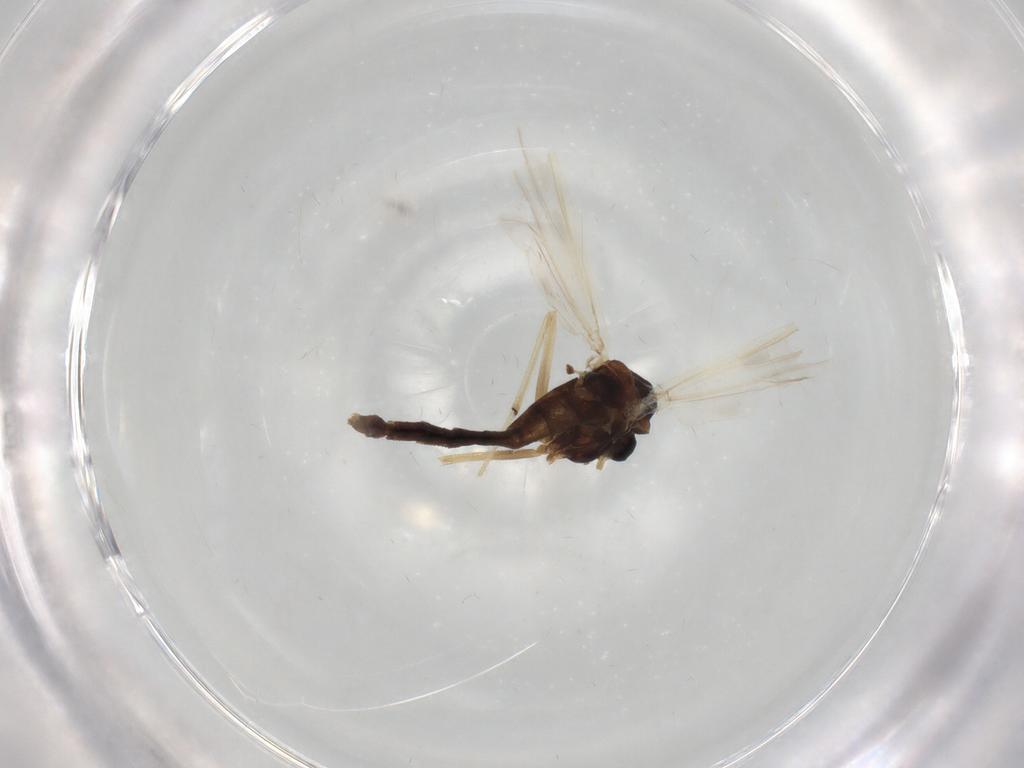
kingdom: Animalia
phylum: Arthropoda
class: Insecta
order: Diptera
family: Chironomidae
